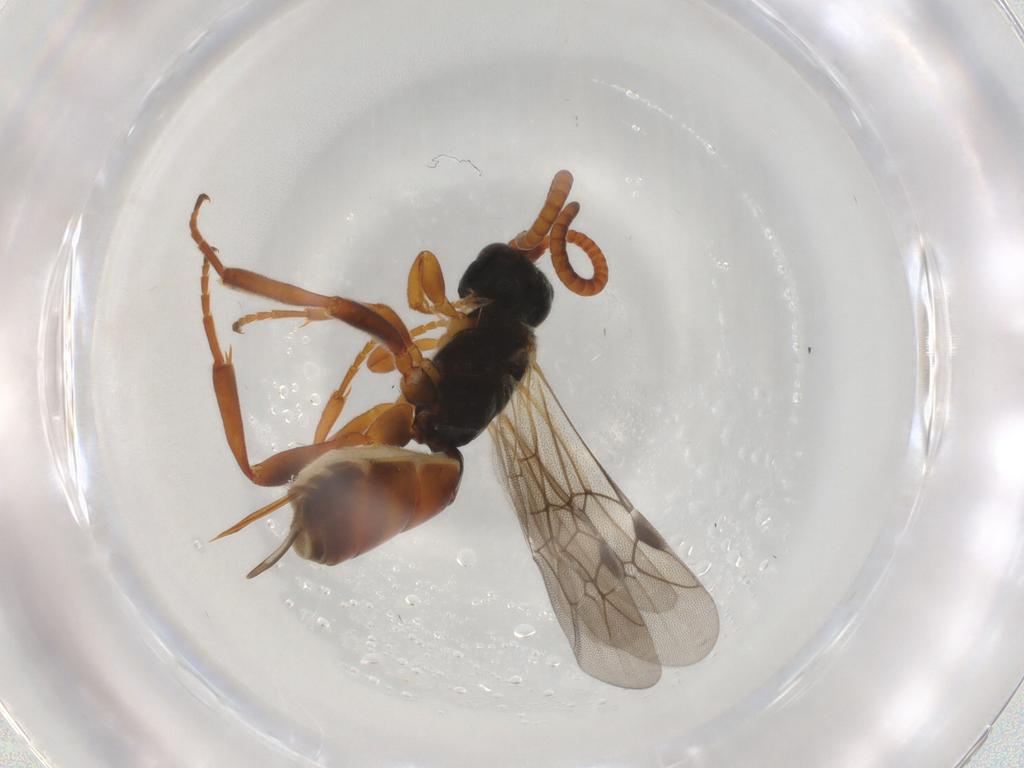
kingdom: Animalia
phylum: Arthropoda
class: Insecta
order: Hymenoptera
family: Ichneumonidae
